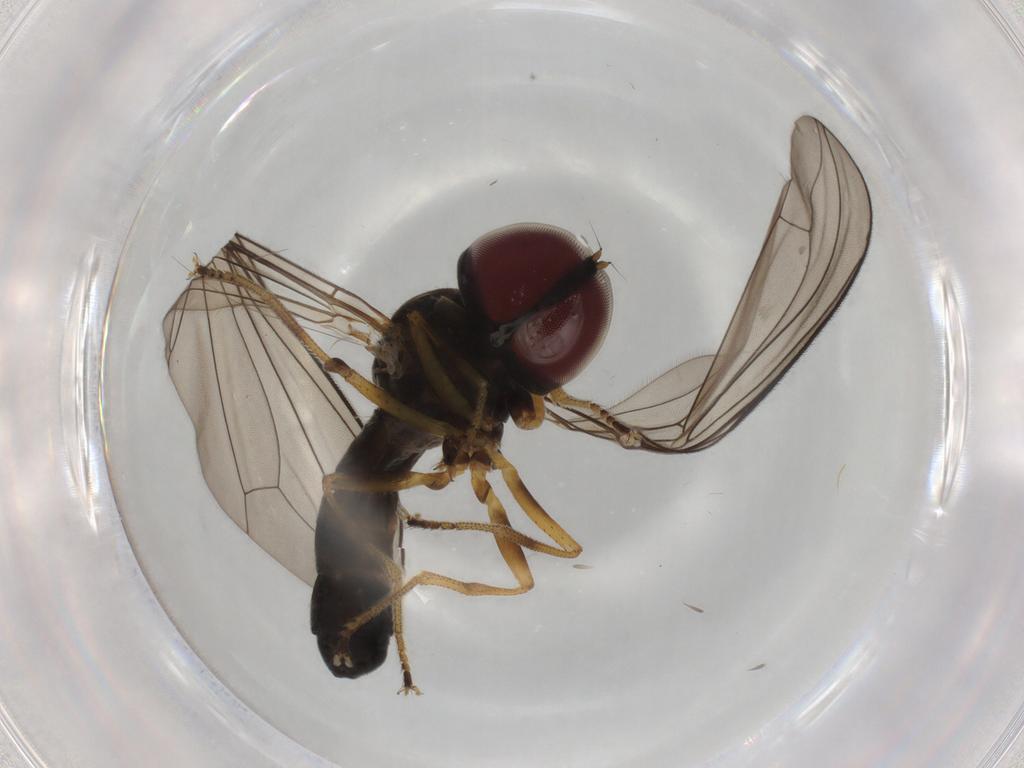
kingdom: Animalia
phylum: Arthropoda
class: Insecta
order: Diptera
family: Pipunculidae
